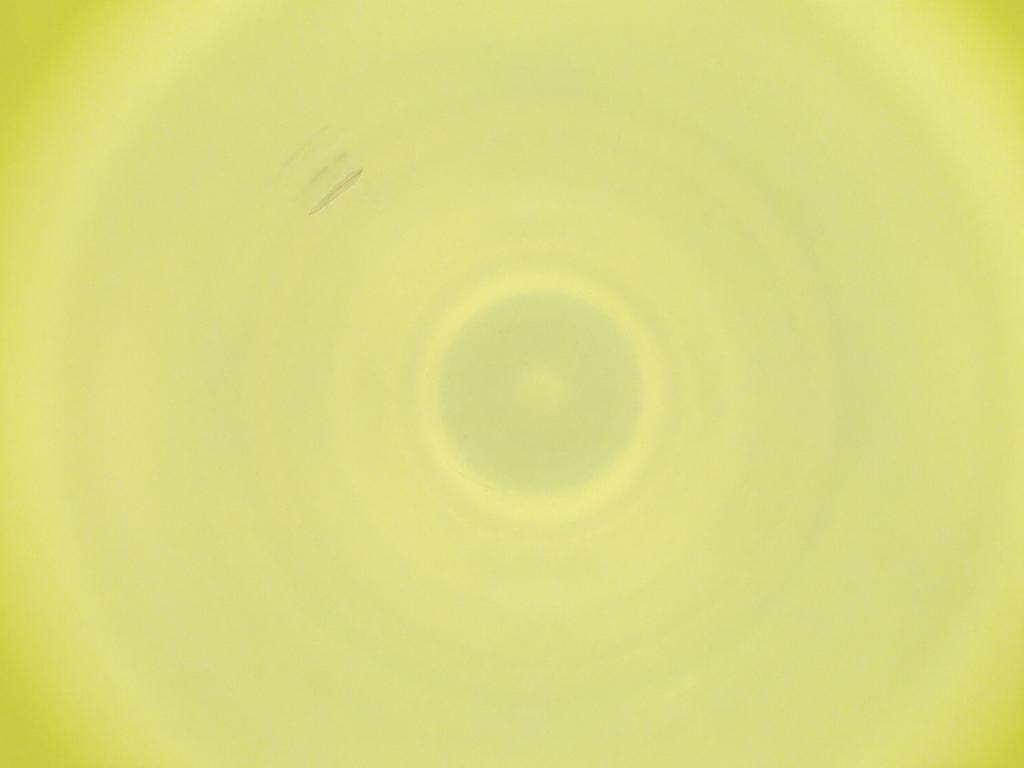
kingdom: Animalia
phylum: Arthropoda
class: Insecta
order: Diptera
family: Cecidomyiidae
